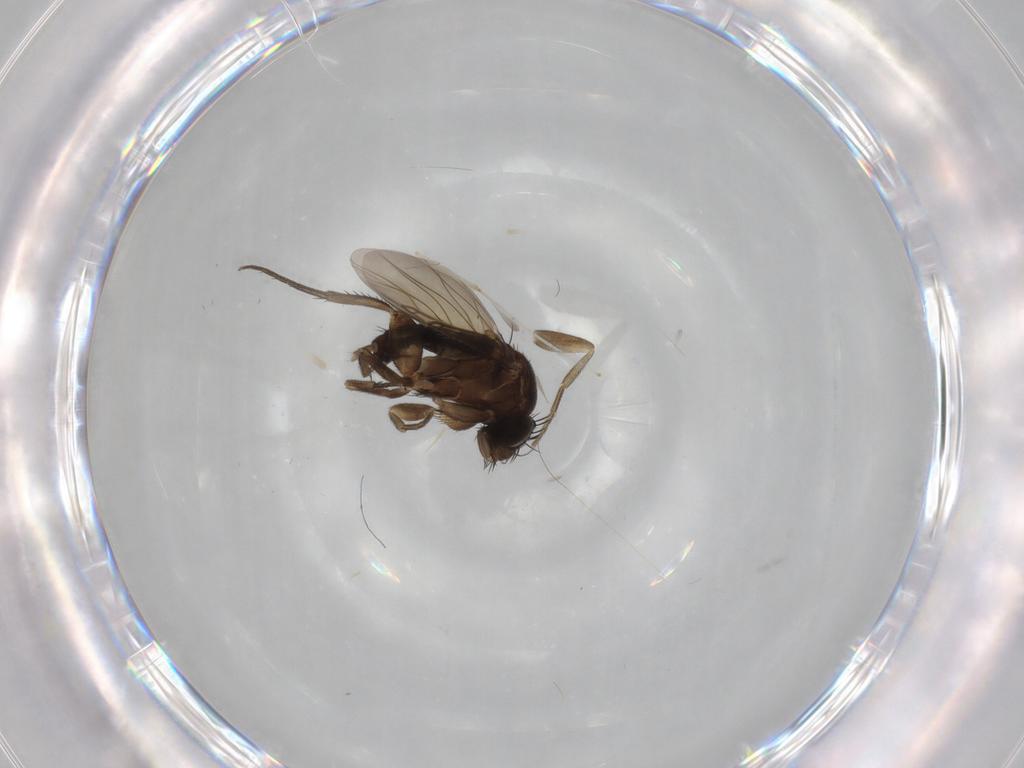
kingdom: Animalia
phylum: Arthropoda
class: Insecta
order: Diptera
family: Phoridae
